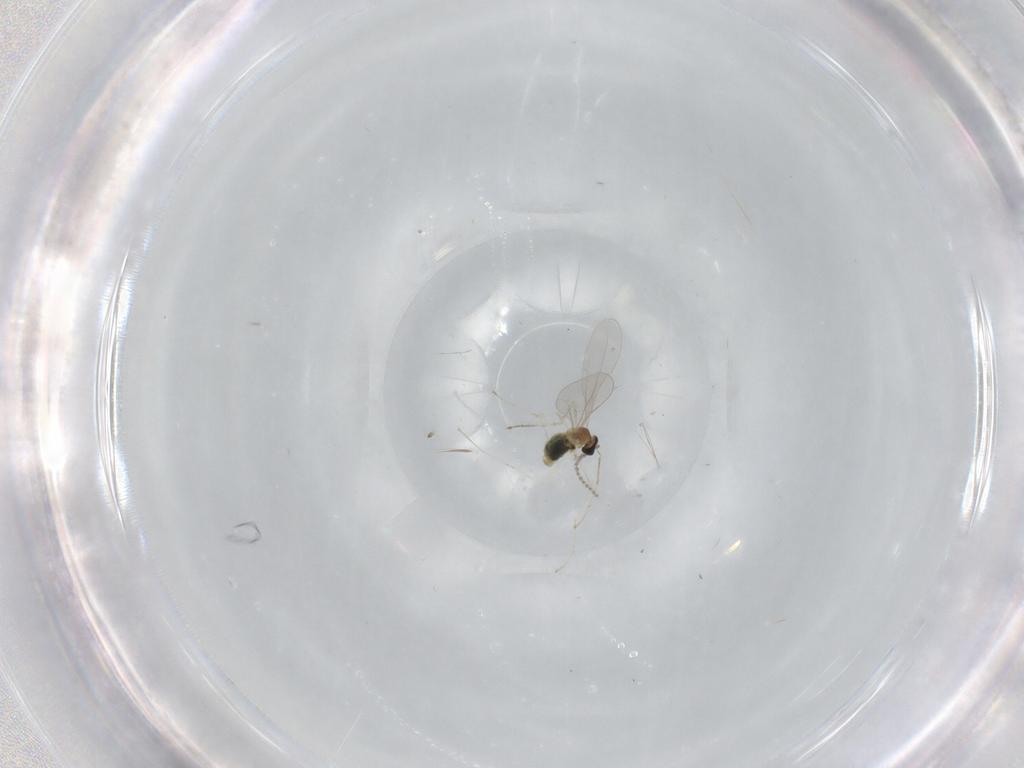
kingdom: Animalia
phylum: Arthropoda
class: Insecta
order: Diptera
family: Cecidomyiidae
